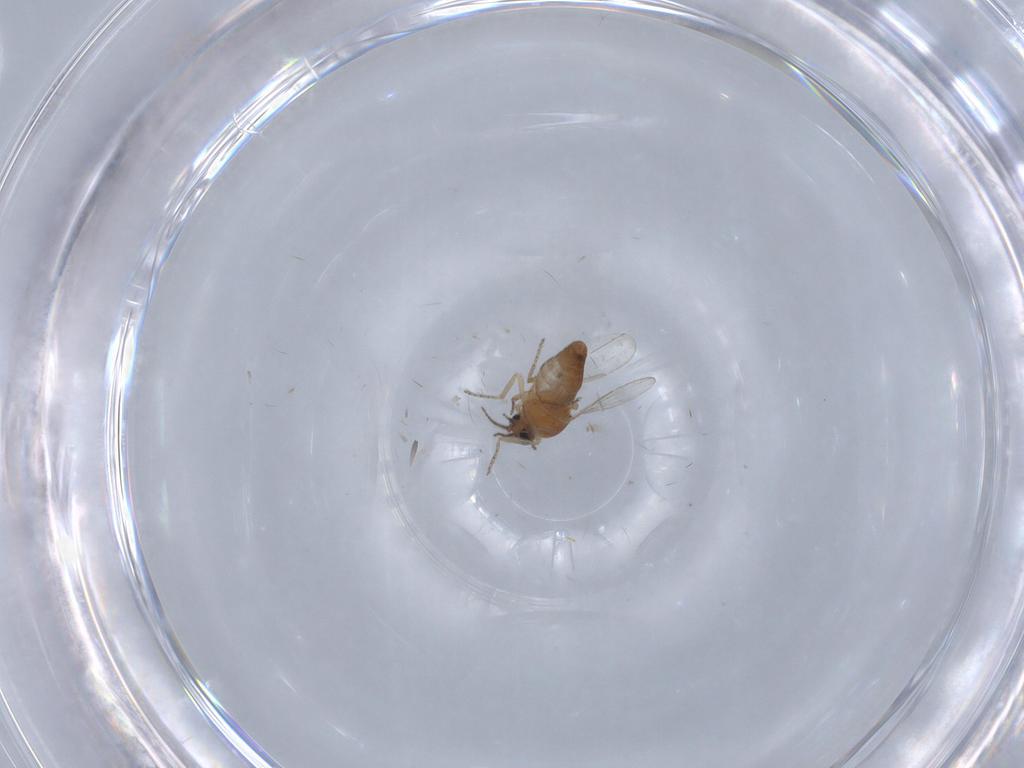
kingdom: Animalia
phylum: Arthropoda
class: Insecta
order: Diptera
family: Ceratopogonidae
